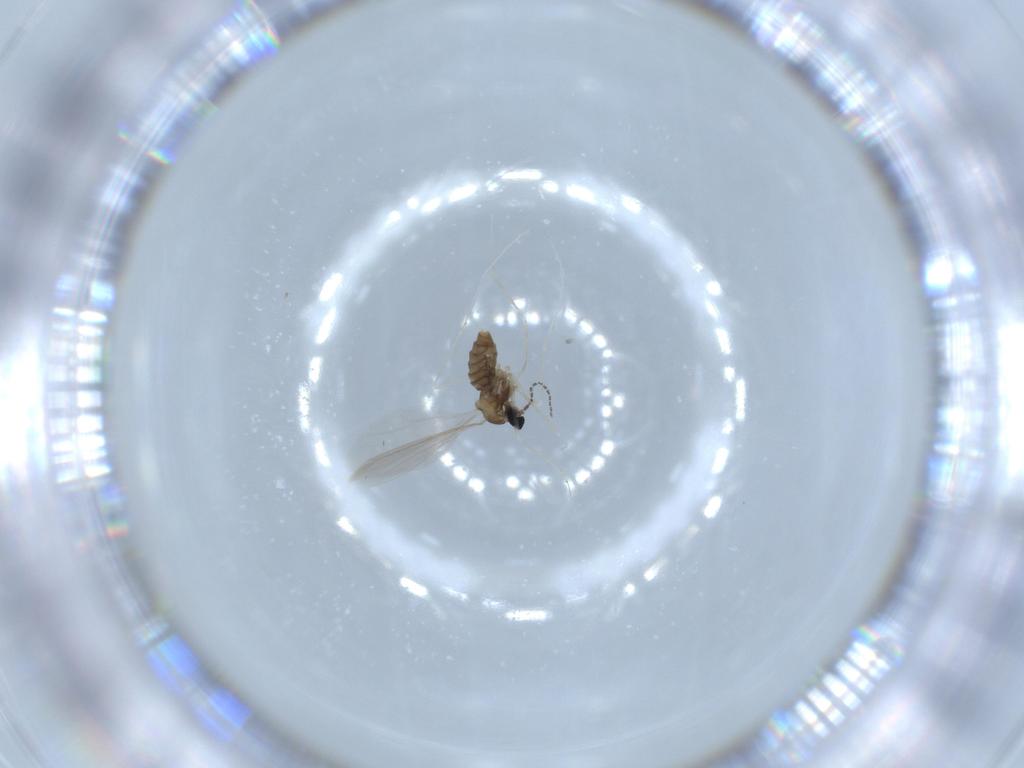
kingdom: Animalia
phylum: Arthropoda
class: Insecta
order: Diptera
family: Cecidomyiidae
